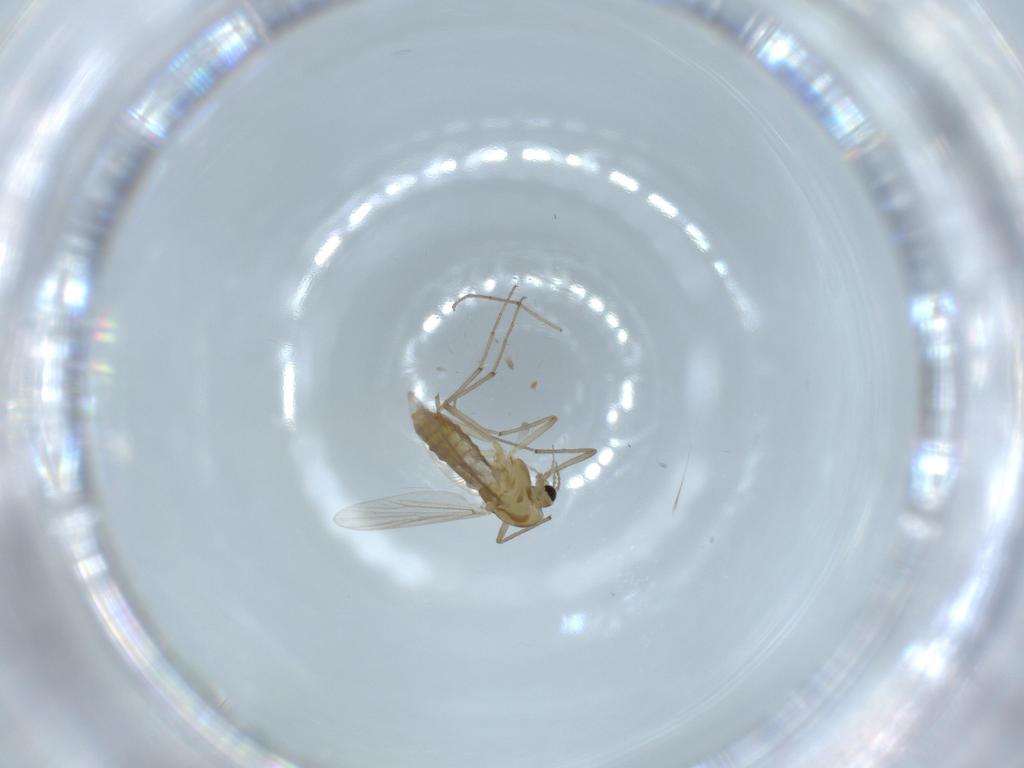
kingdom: Animalia
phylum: Arthropoda
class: Insecta
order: Diptera
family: Chironomidae
